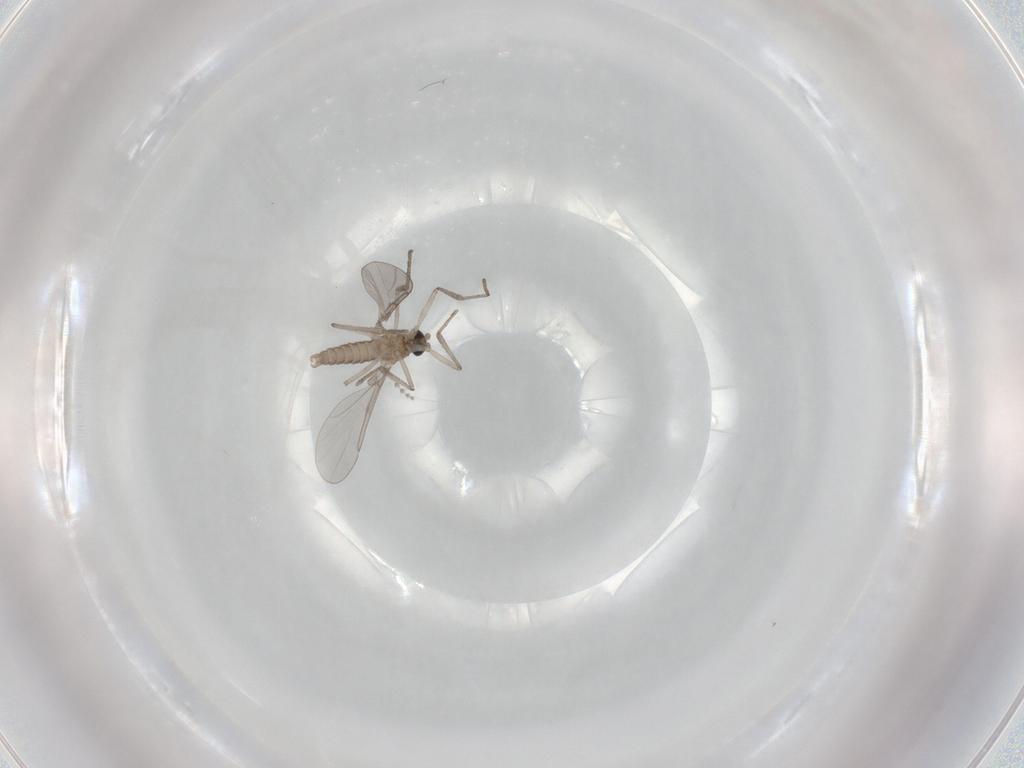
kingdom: Animalia
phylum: Arthropoda
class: Insecta
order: Diptera
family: Cecidomyiidae
